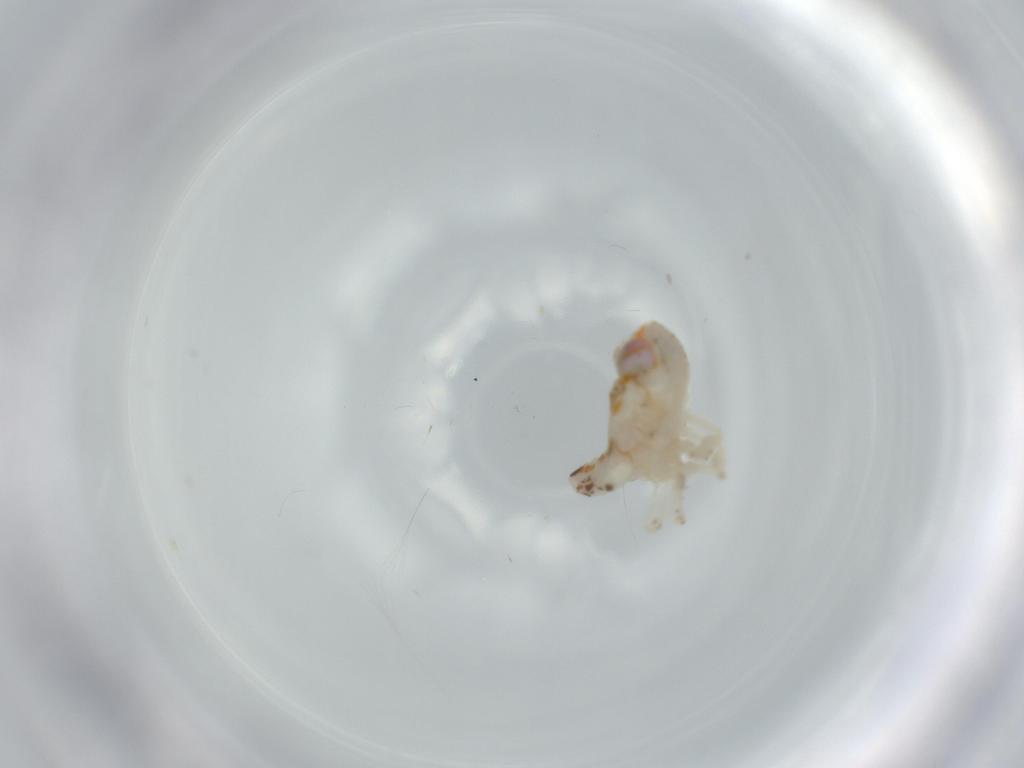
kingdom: Animalia
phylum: Arthropoda
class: Insecta
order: Hemiptera
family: Nogodinidae
